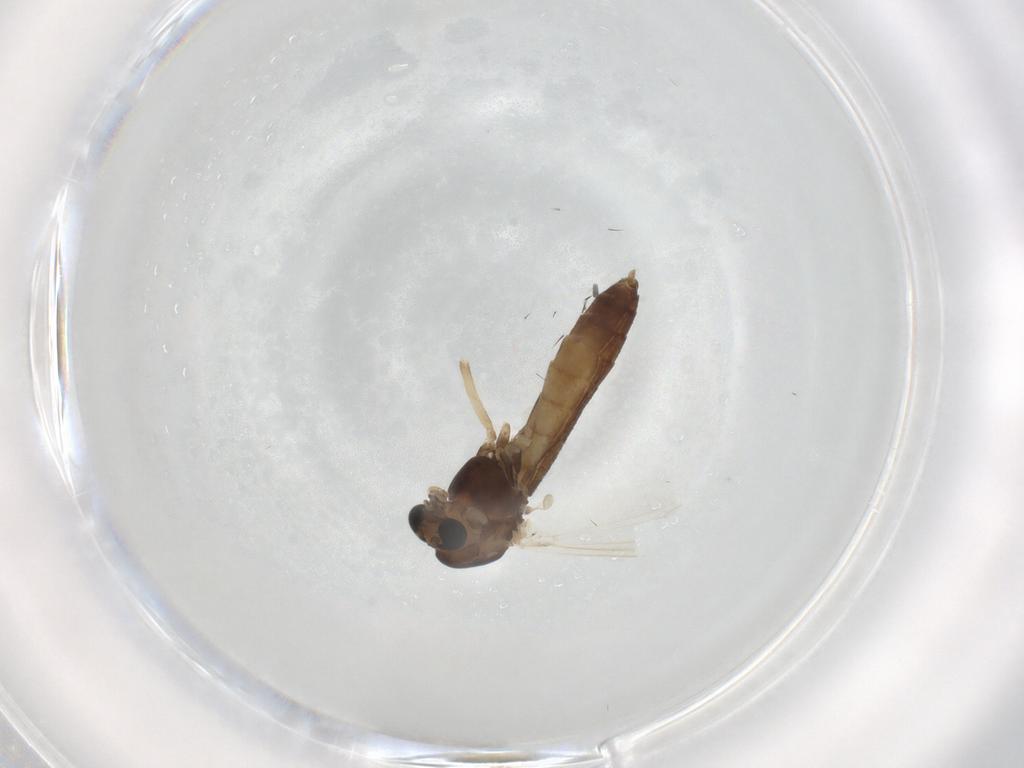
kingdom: Animalia
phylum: Arthropoda
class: Insecta
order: Diptera
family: Chironomidae
